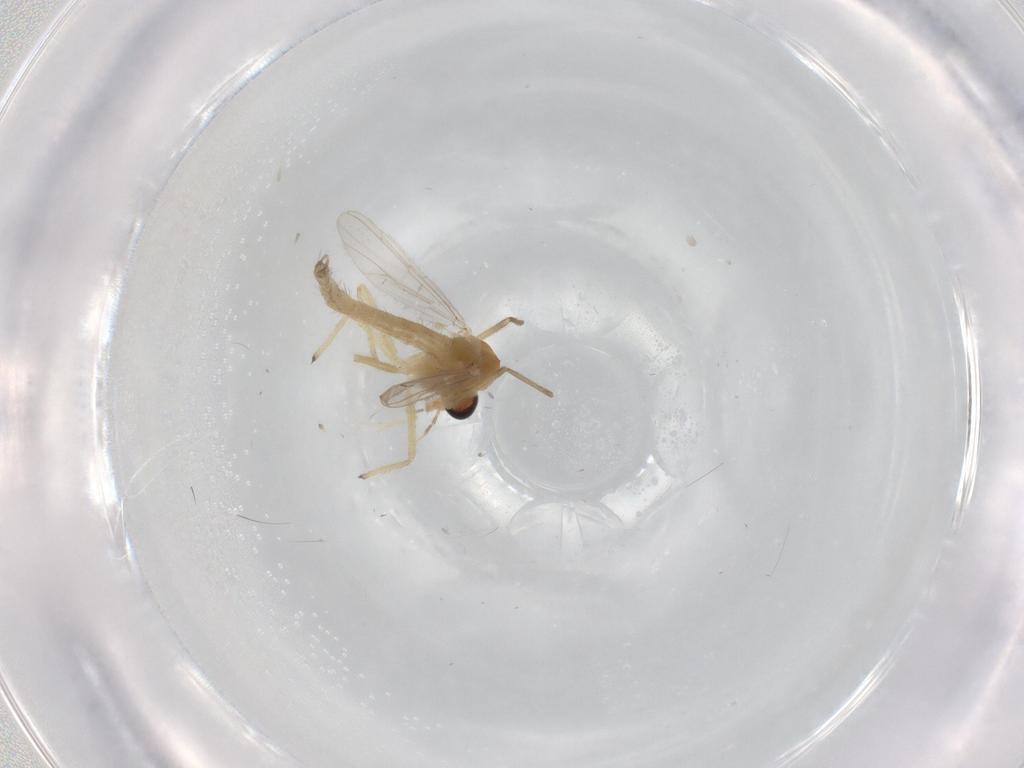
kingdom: Animalia
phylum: Arthropoda
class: Insecta
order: Diptera
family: Chironomidae
